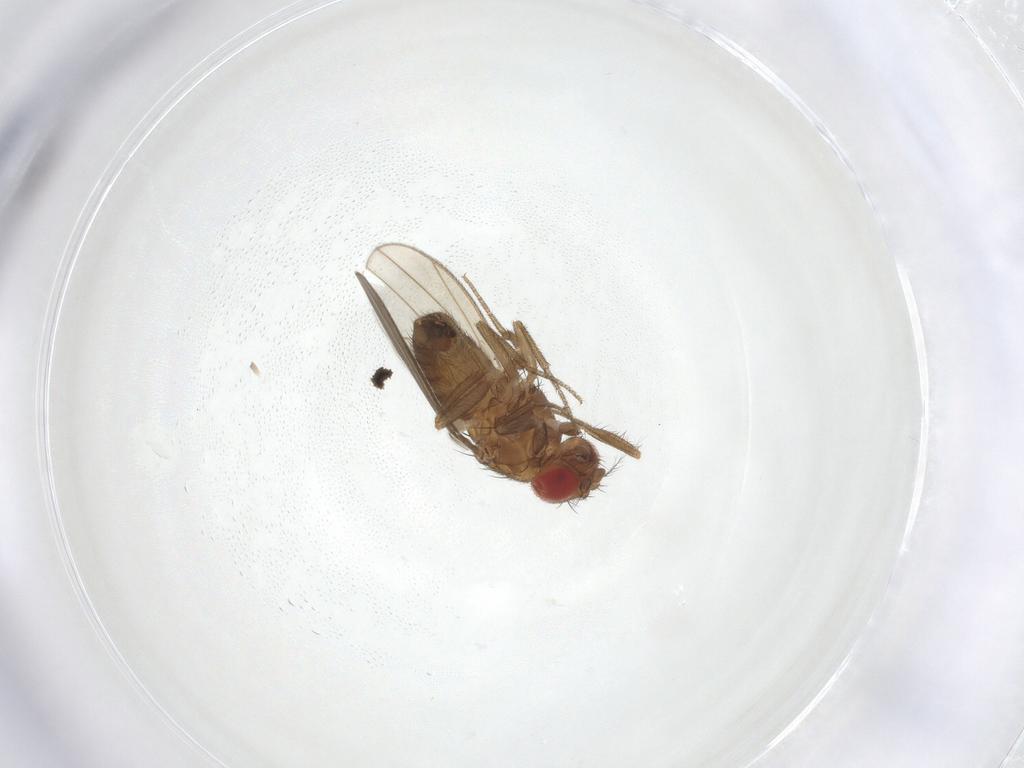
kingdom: Animalia
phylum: Arthropoda
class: Insecta
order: Diptera
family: Drosophilidae
